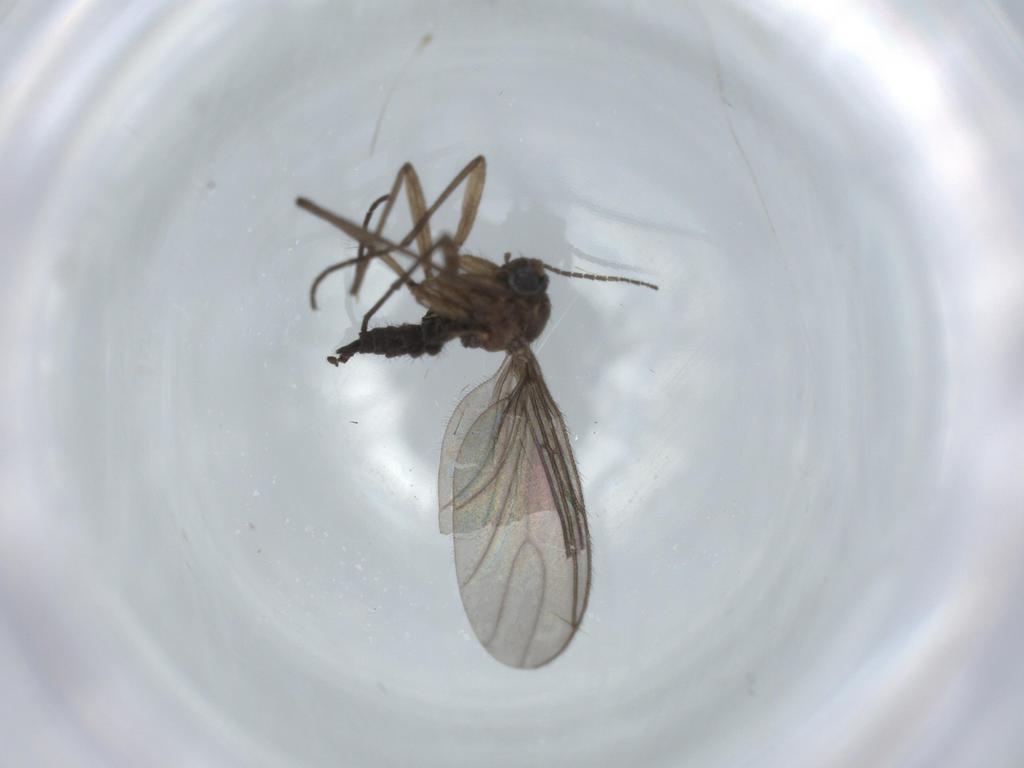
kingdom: Animalia
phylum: Arthropoda
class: Insecta
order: Diptera
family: Sciaridae
